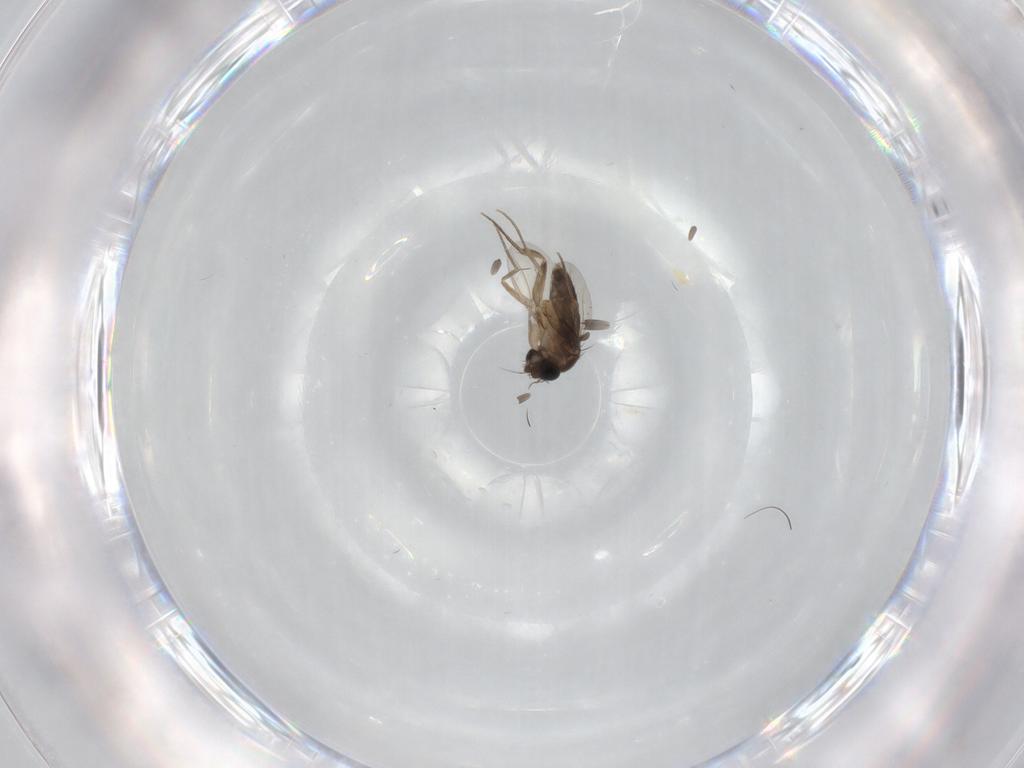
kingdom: Animalia
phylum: Arthropoda
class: Insecta
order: Diptera
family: Phoridae
